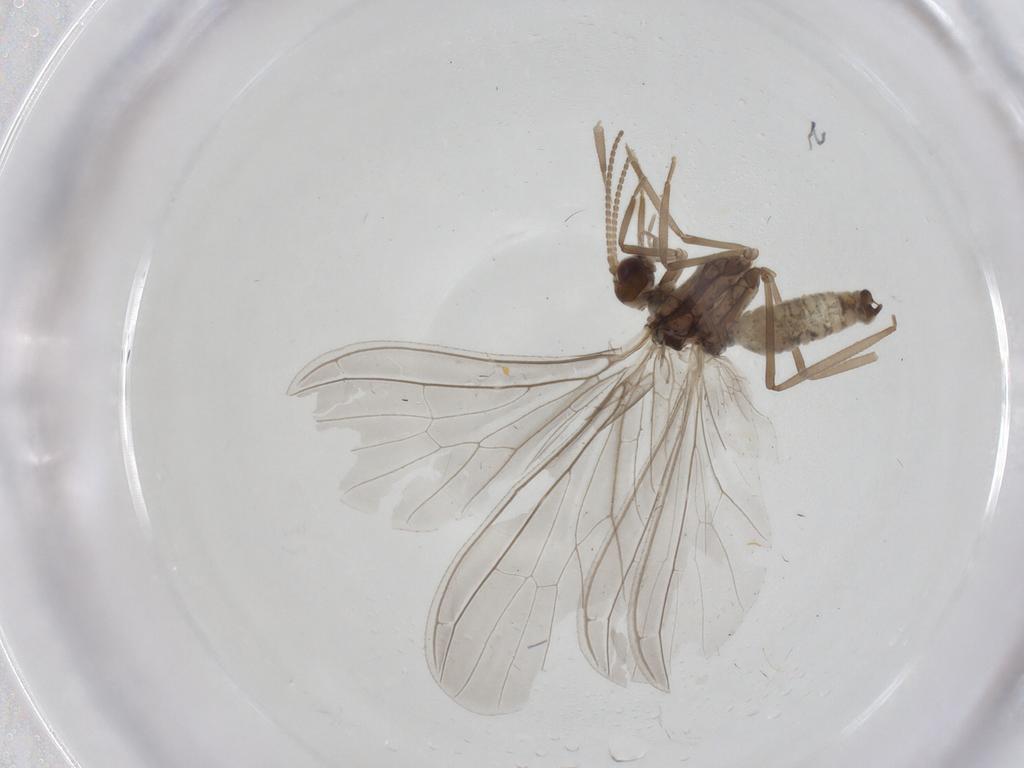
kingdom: Animalia
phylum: Arthropoda
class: Insecta
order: Neuroptera
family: Coniopterygidae
